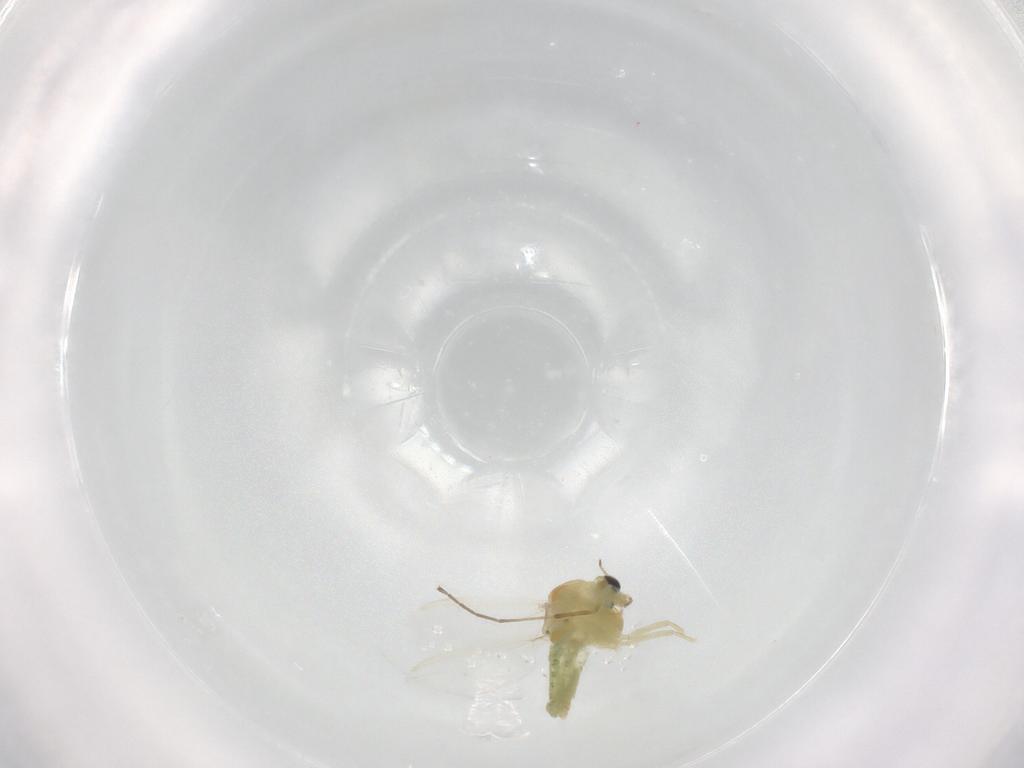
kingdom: Animalia
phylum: Arthropoda
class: Insecta
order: Diptera
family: Chironomidae
